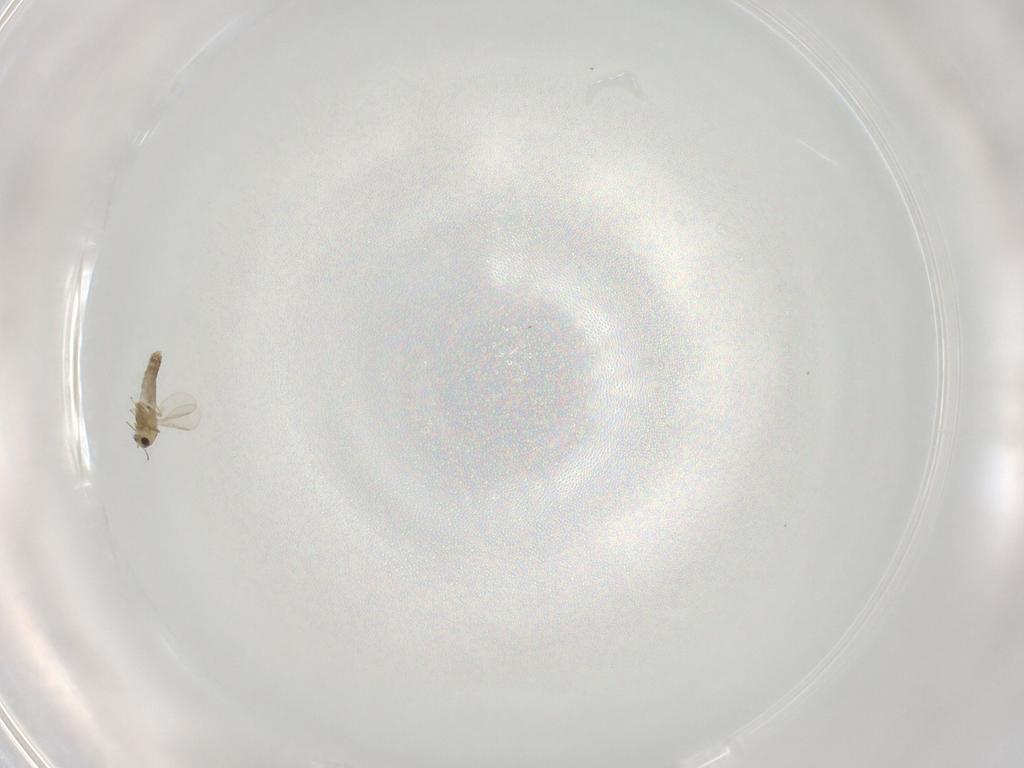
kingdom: Animalia
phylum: Arthropoda
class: Insecta
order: Diptera
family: Chironomidae
